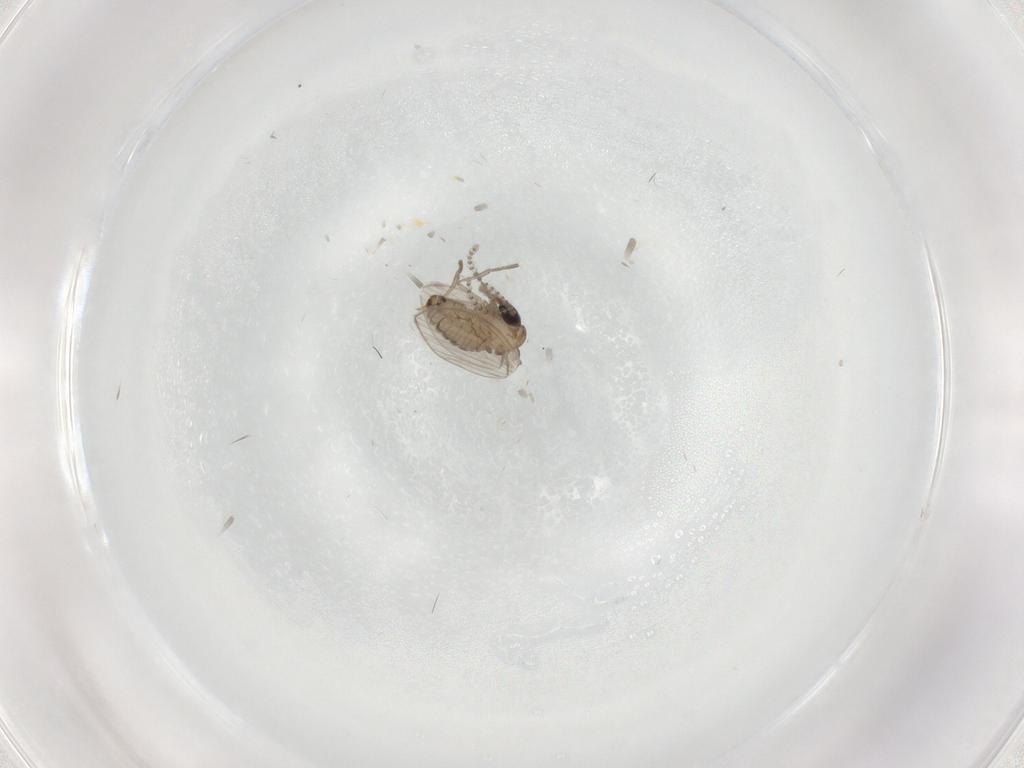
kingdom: Animalia
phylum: Arthropoda
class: Insecta
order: Diptera
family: Psychodidae
